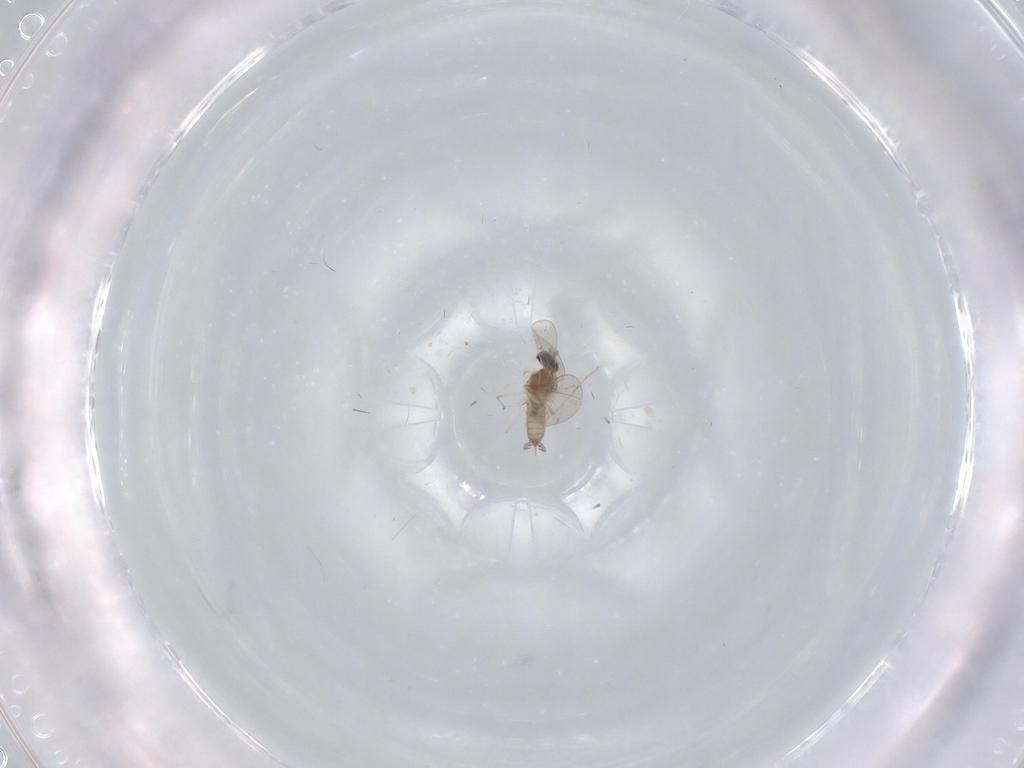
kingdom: Animalia
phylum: Arthropoda
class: Insecta
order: Diptera
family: Cecidomyiidae
